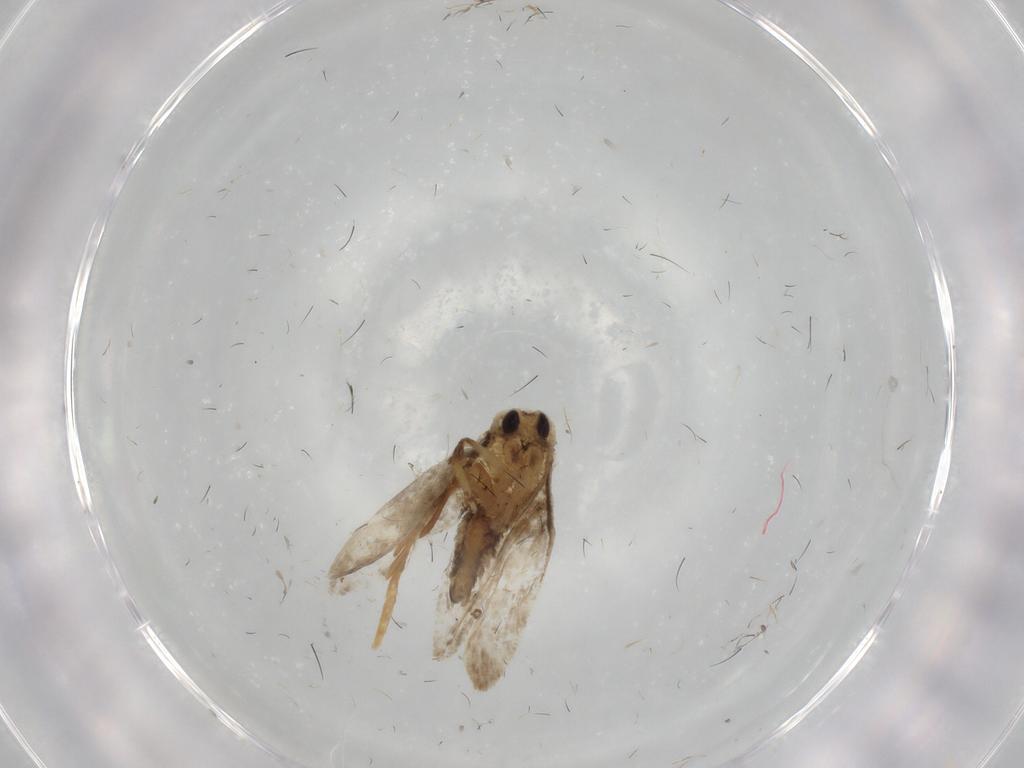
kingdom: Animalia
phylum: Arthropoda
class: Insecta
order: Lepidoptera
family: Psychidae
